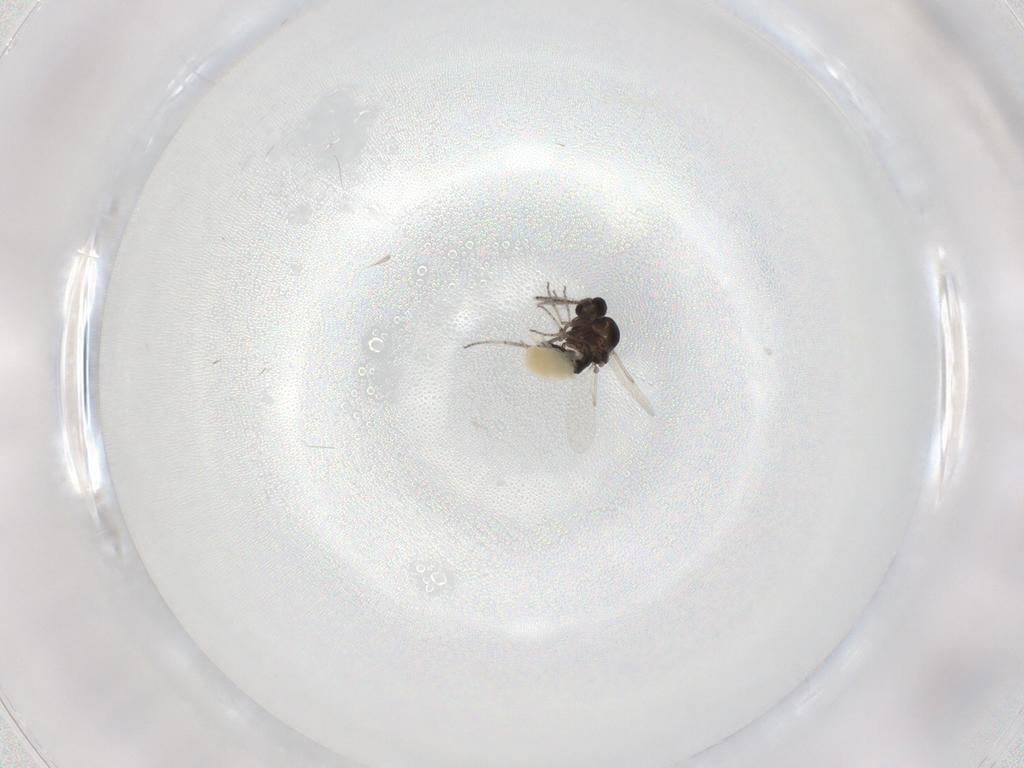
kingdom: Animalia
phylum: Arthropoda
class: Insecta
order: Diptera
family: Ceratopogonidae
